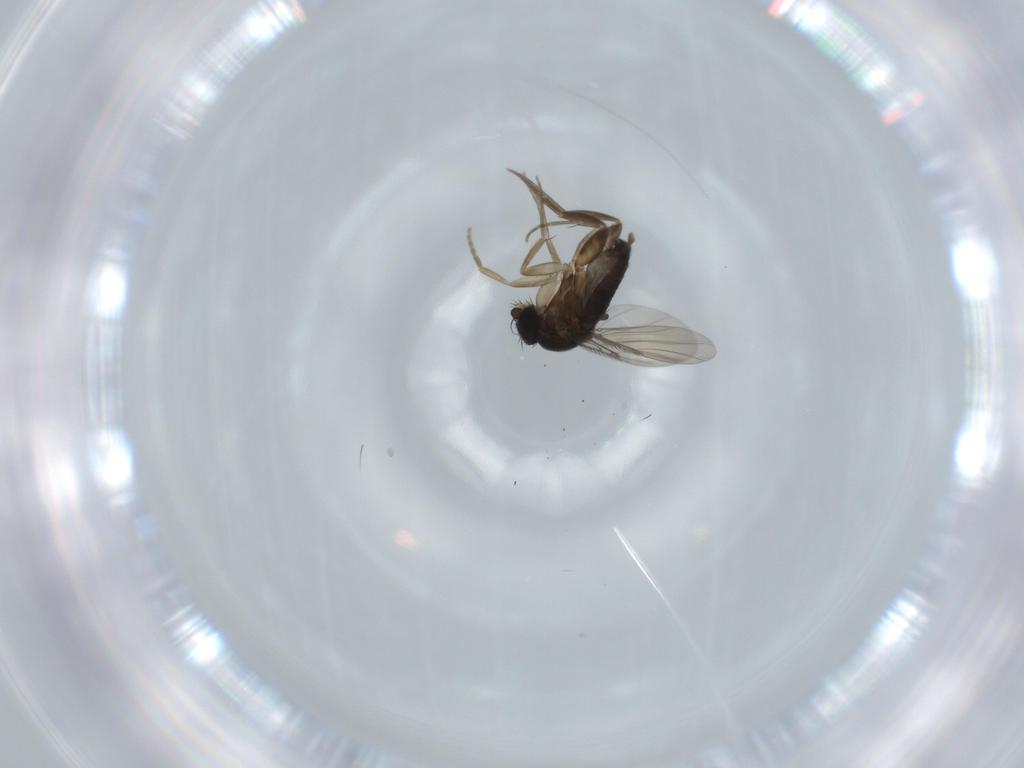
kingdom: Animalia
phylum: Arthropoda
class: Insecta
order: Diptera
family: Phoridae
